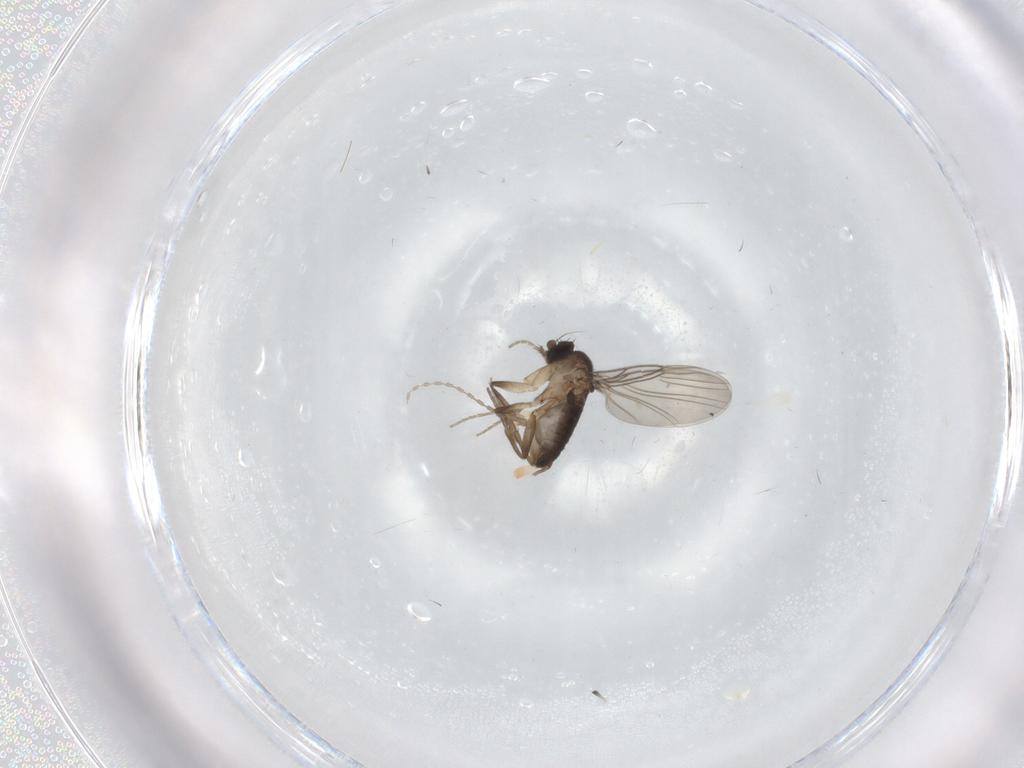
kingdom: Animalia
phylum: Arthropoda
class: Insecta
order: Diptera
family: Phoridae
